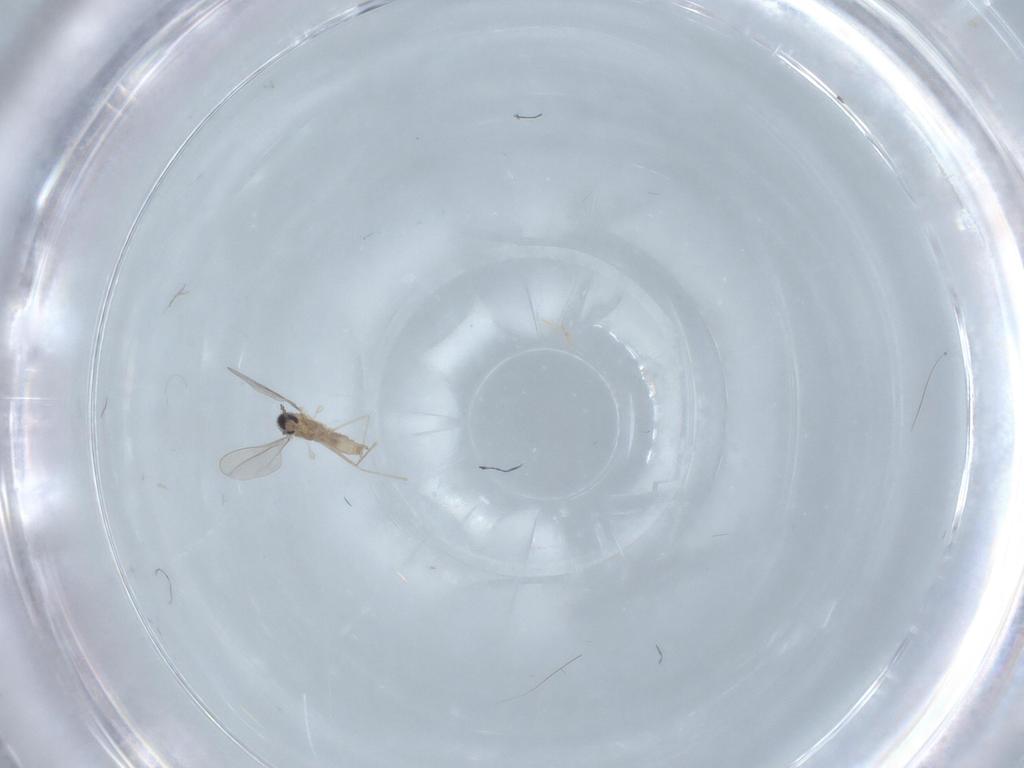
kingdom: Animalia
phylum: Arthropoda
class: Insecta
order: Diptera
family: Cecidomyiidae
